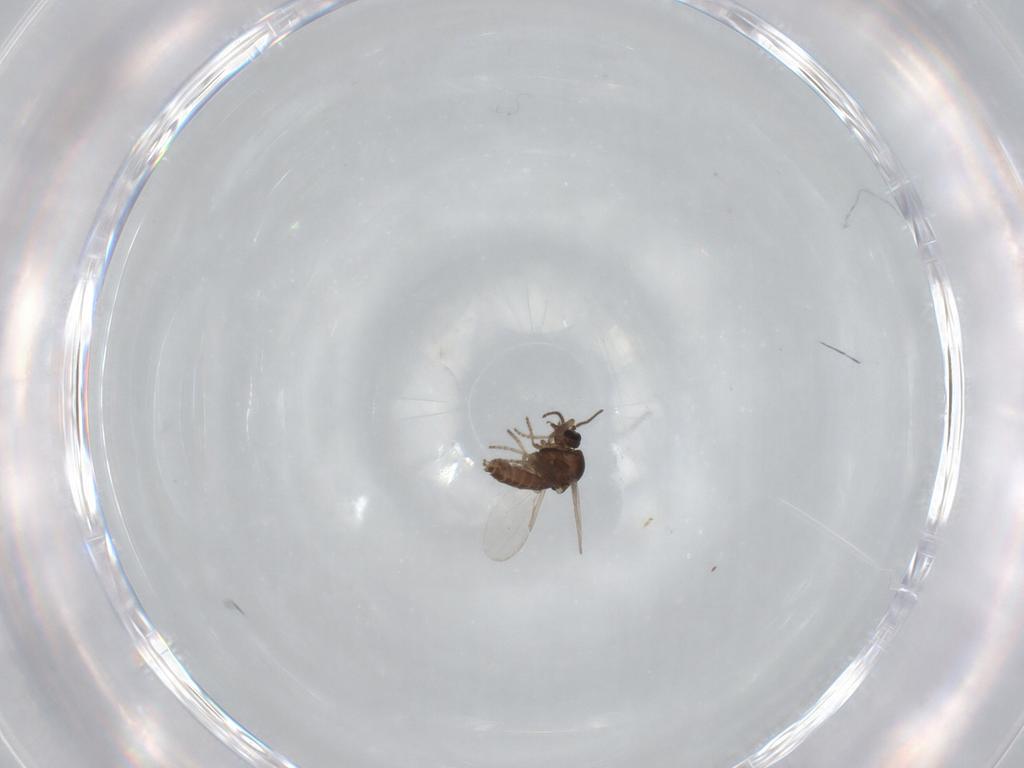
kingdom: Animalia
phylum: Arthropoda
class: Insecta
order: Diptera
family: Ceratopogonidae
